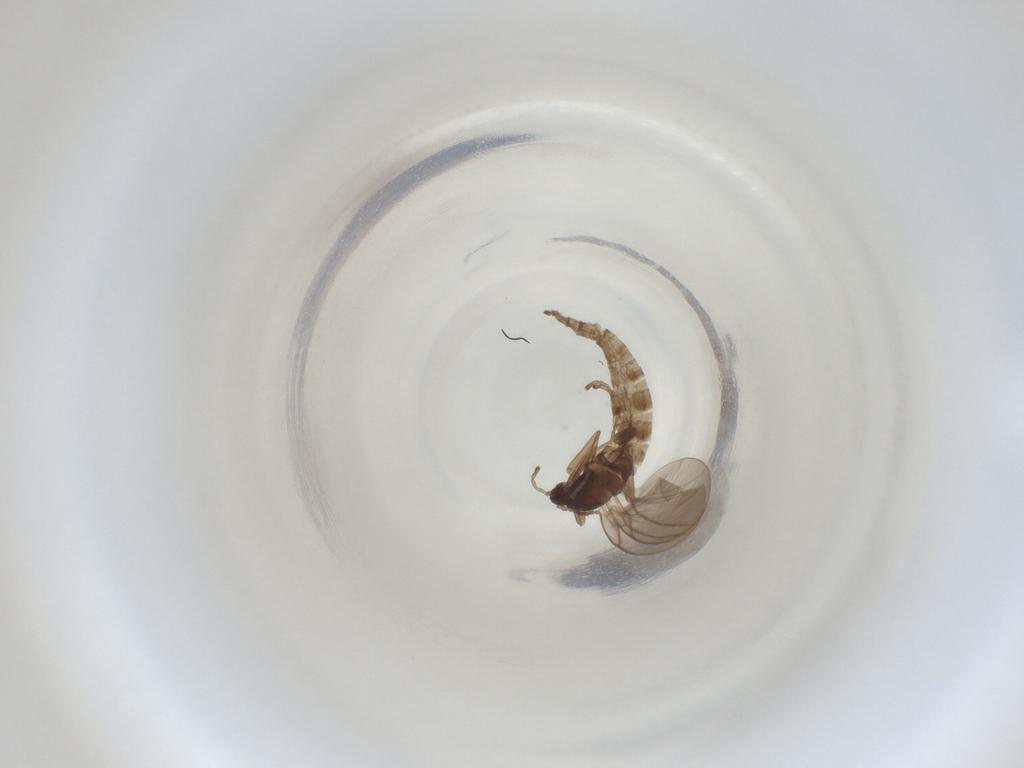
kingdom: Animalia
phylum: Arthropoda
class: Insecta
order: Diptera
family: Cecidomyiidae
